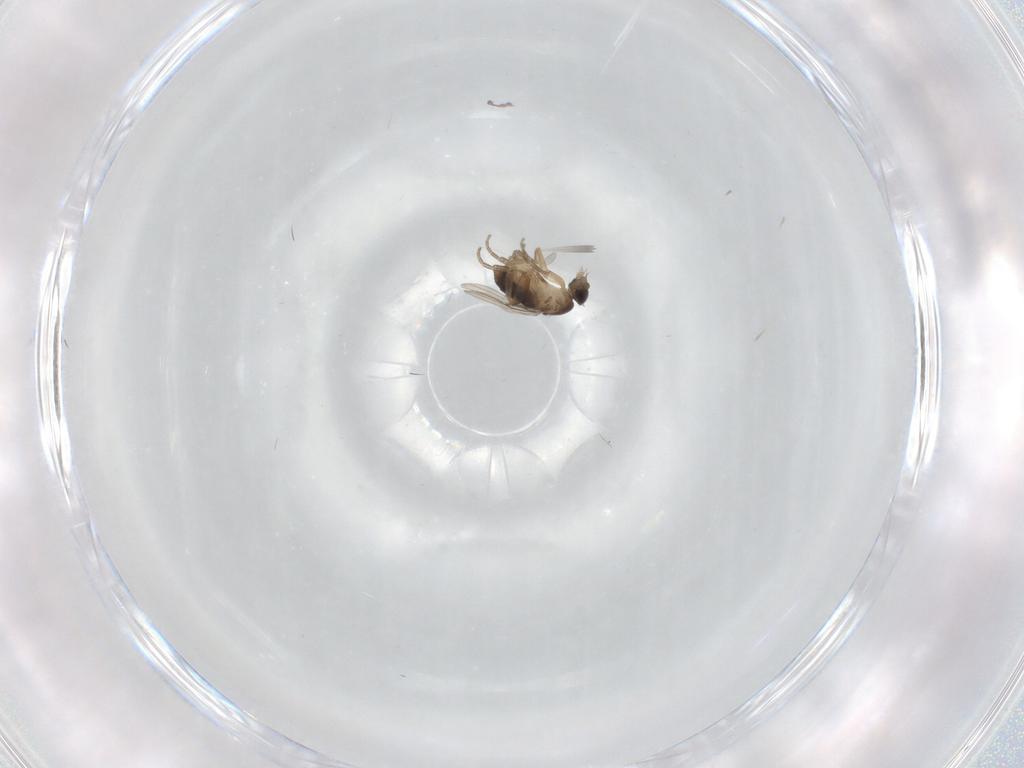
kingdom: Animalia
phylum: Arthropoda
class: Insecta
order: Diptera
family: Phoridae
